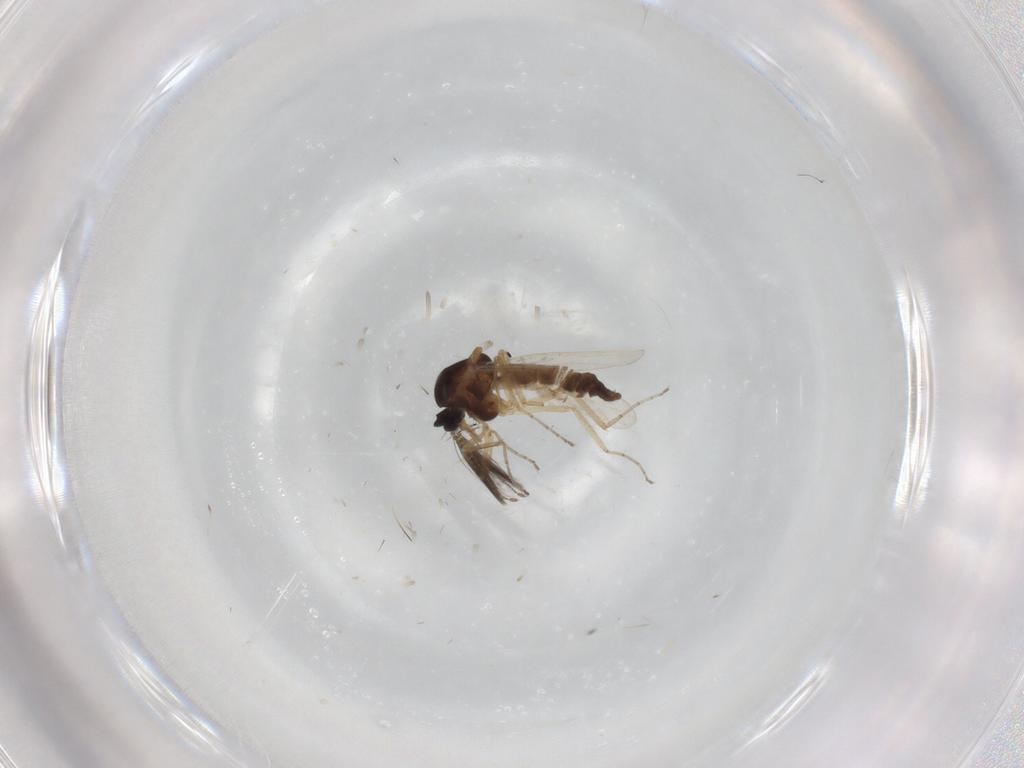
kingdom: Animalia
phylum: Arthropoda
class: Insecta
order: Diptera
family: Ceratopogonidae
